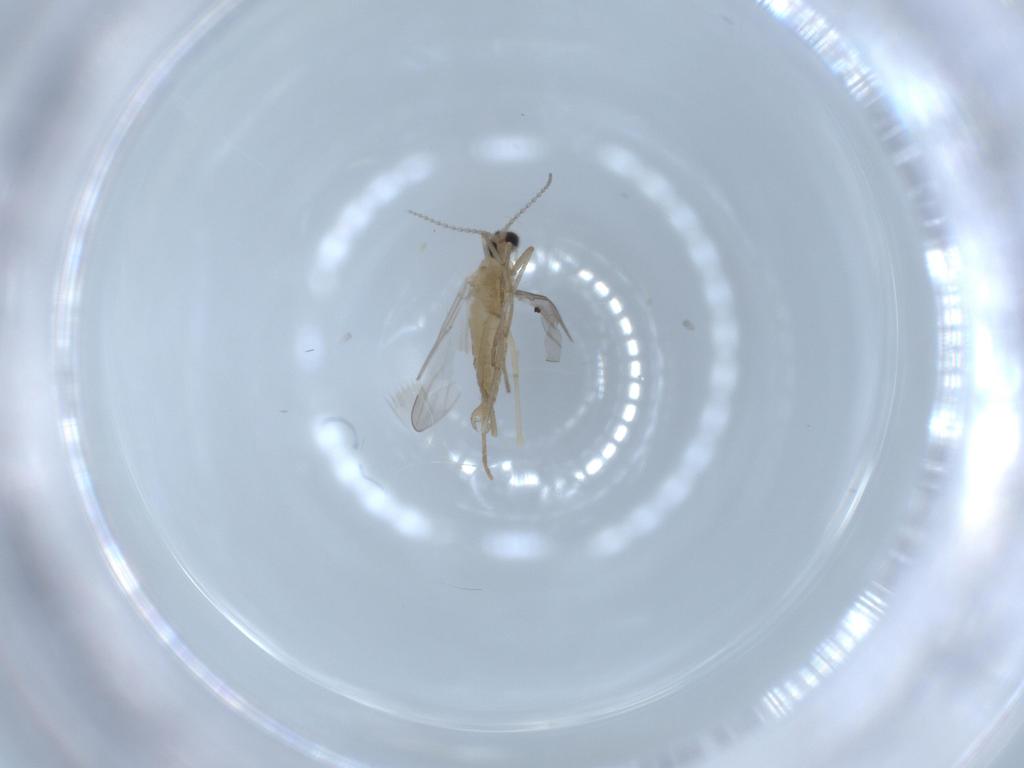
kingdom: Animalia
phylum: Arthropoda
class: Insecta
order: Diptera
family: Cecidomyiidae
